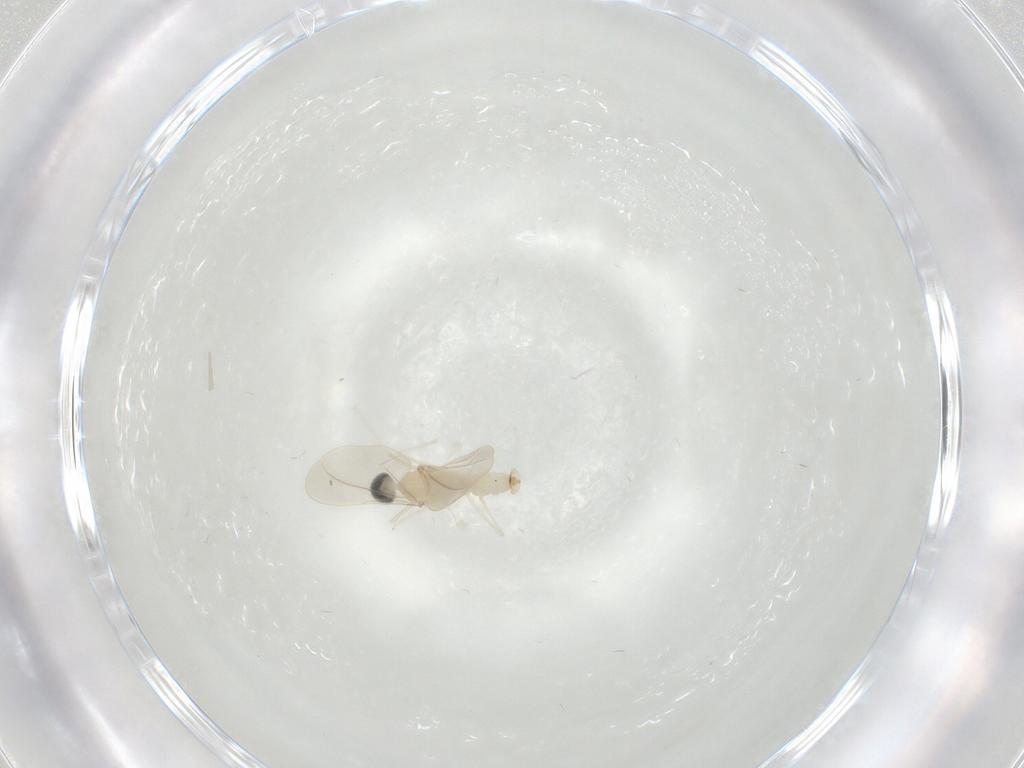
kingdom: Animalia
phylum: Arthropoda
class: Insecta
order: Diptera
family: Cecidomyiidae
